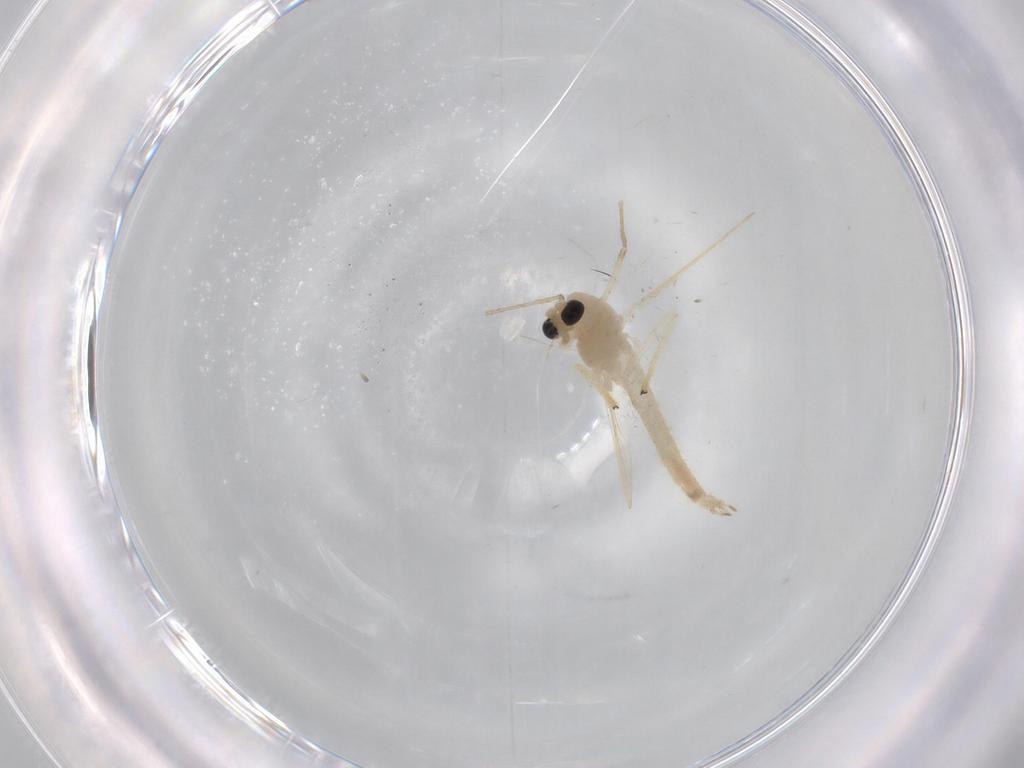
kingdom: Animalia
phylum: Arthropoda
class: Insecta
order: Diptera
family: Chironomidae
